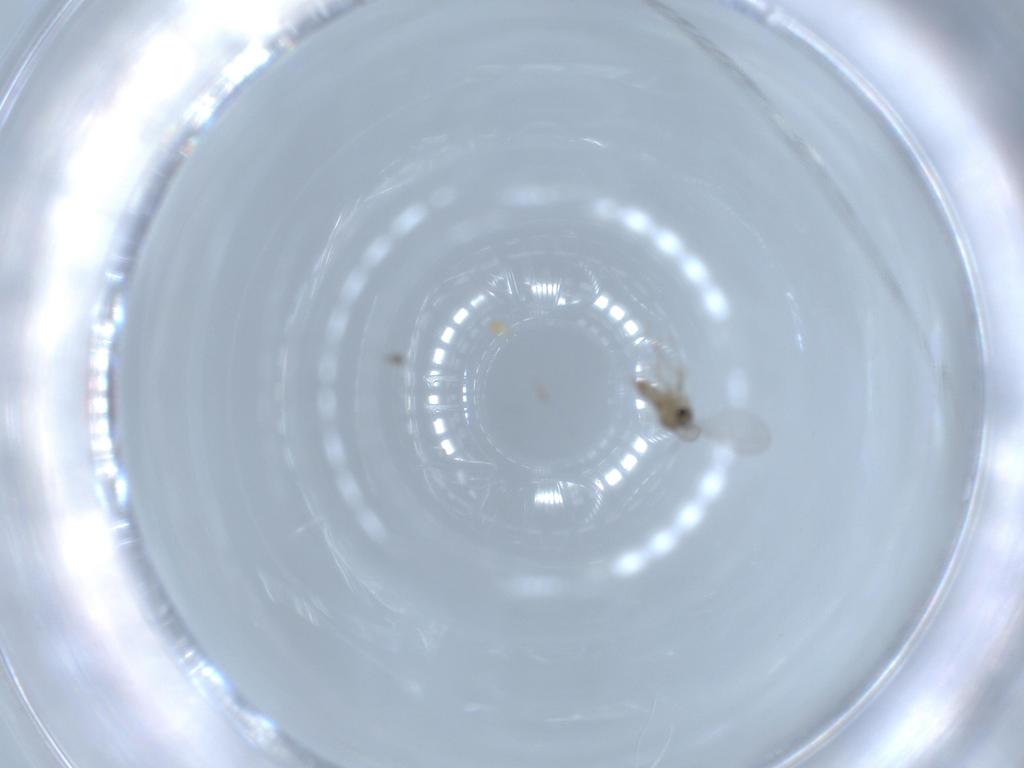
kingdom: Animalia
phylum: Arthropoda
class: Insecta
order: Diptera
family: Cecidomyiidae
